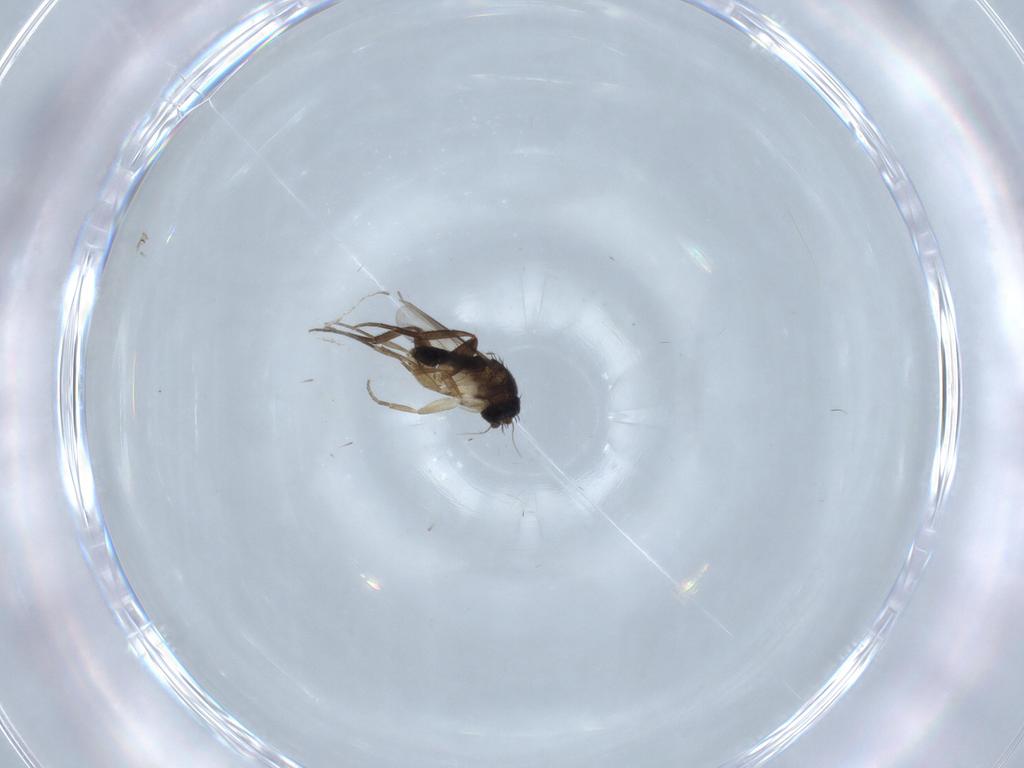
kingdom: Animalia
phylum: Arthropoda
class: Insecta
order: Diptera
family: Psychodidae
